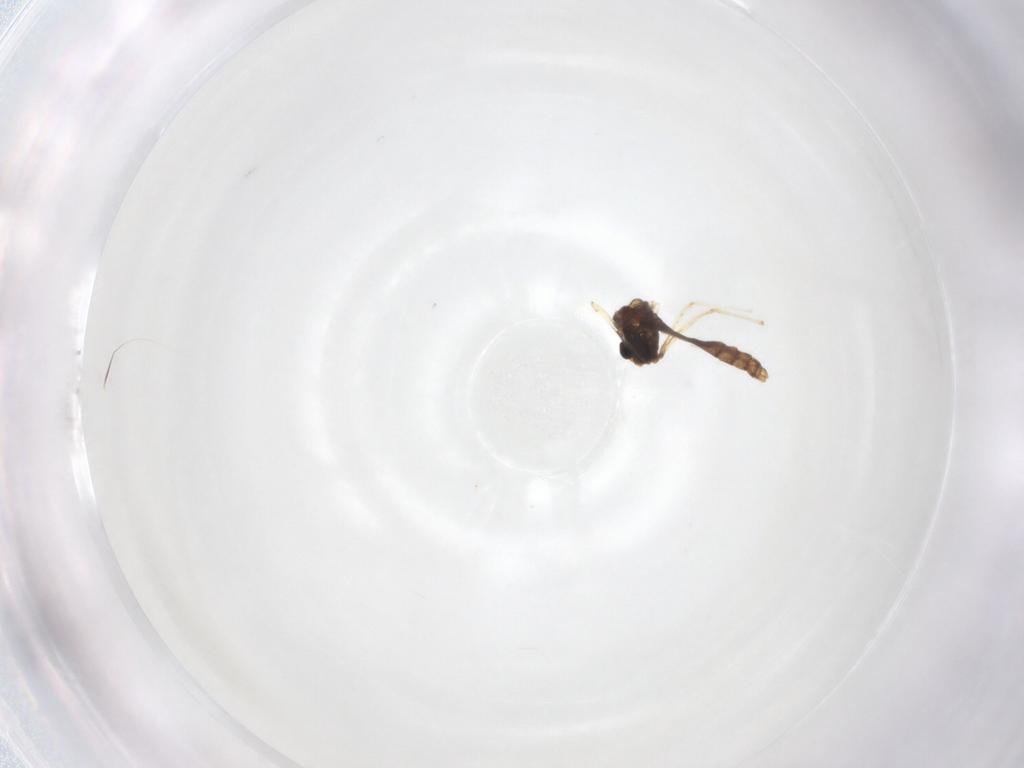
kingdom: Animalia
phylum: Arthropoda
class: Insecta
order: Diptera
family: Chironomidae
